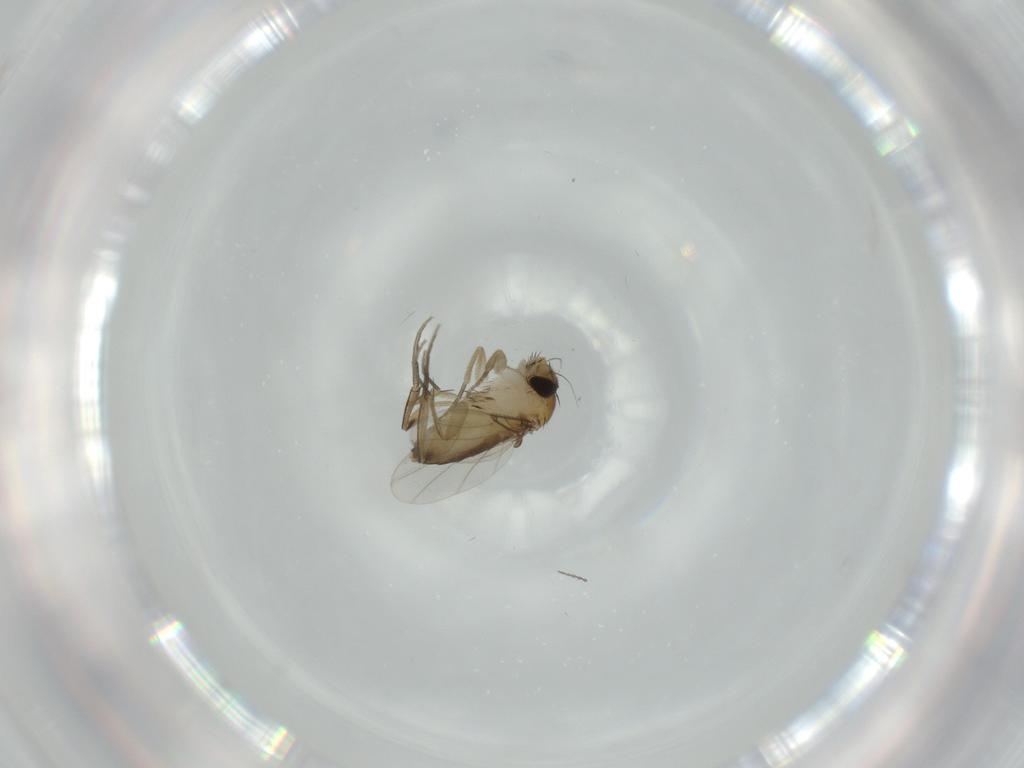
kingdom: Animalia
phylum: Arthropoda
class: Insecta
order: Diptera
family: Phoridae
